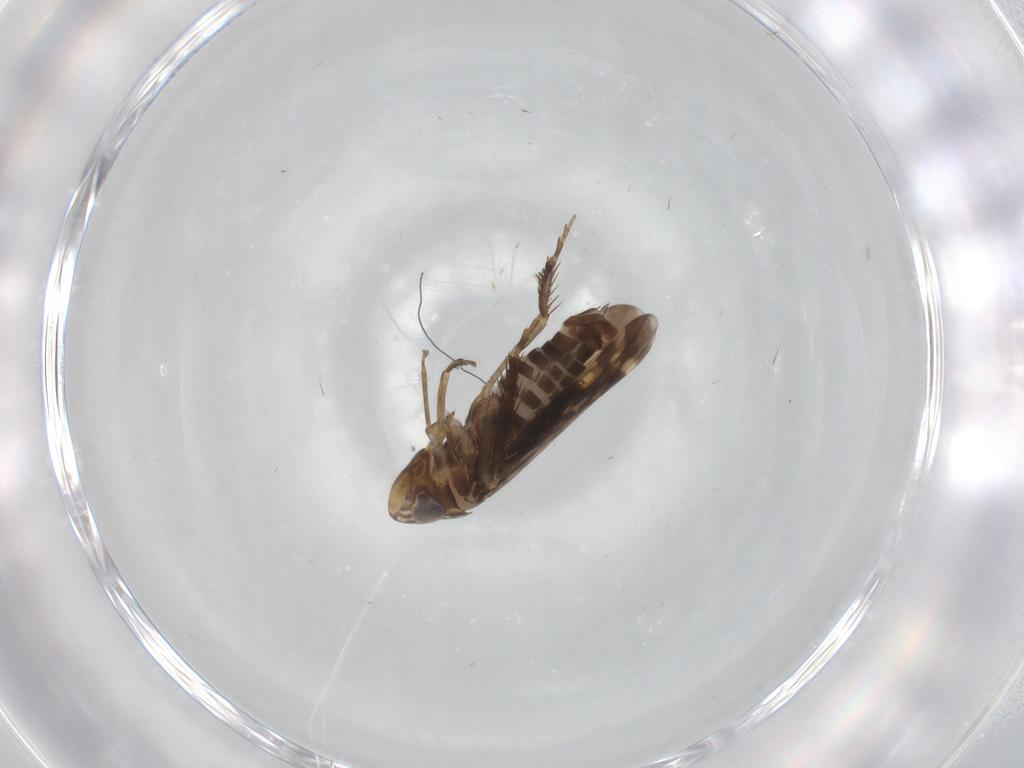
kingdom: Animalia
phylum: Arthropoda
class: Insecta
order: Hemiptera
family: Cicadellidae
